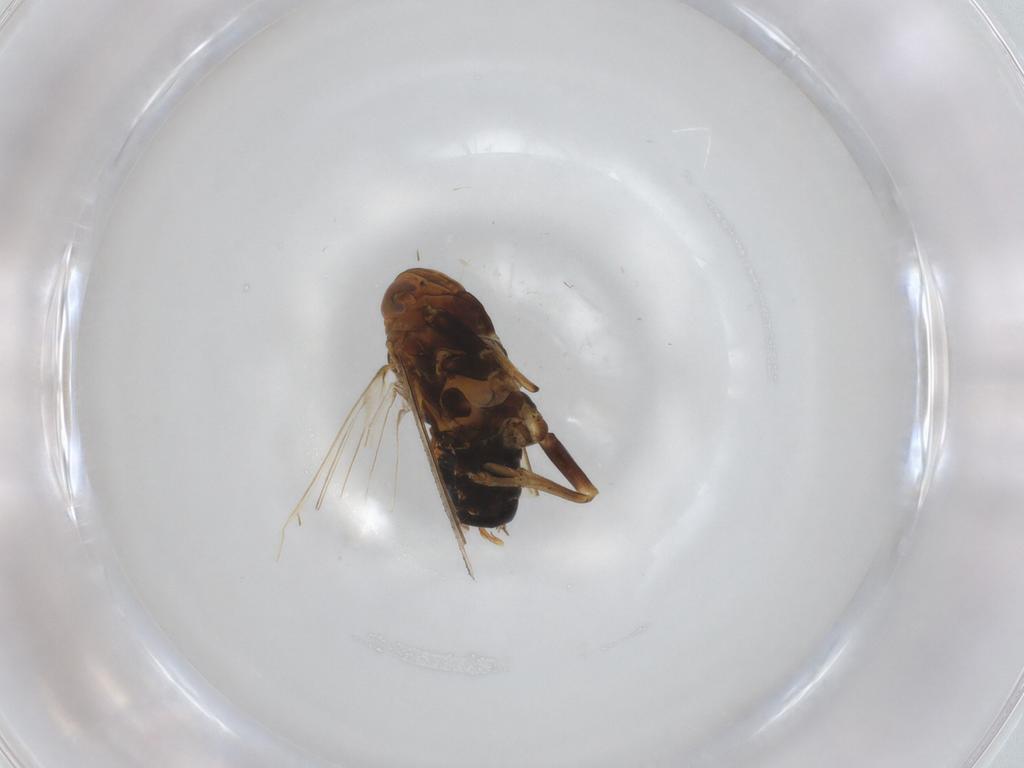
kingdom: Animalia
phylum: Arthropoda
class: Insecta
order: Hemiptera
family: Delphacidae
